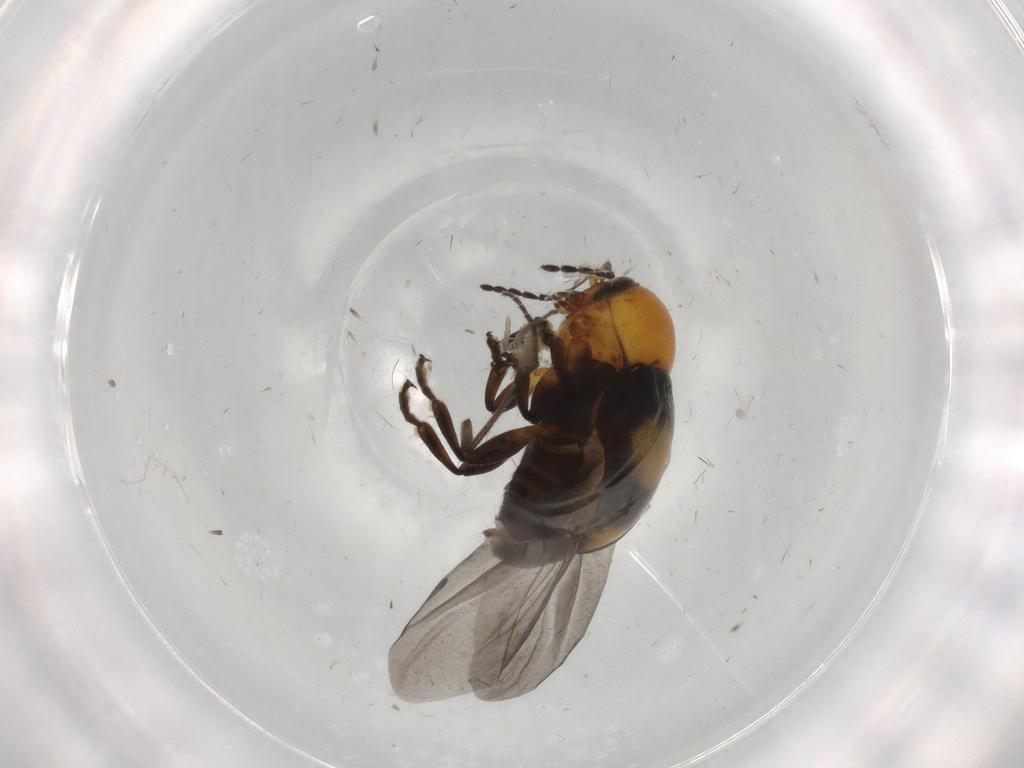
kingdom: Animalia
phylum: Arthropoda
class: Insecta
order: Coleoptera
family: Chrysomelidae
